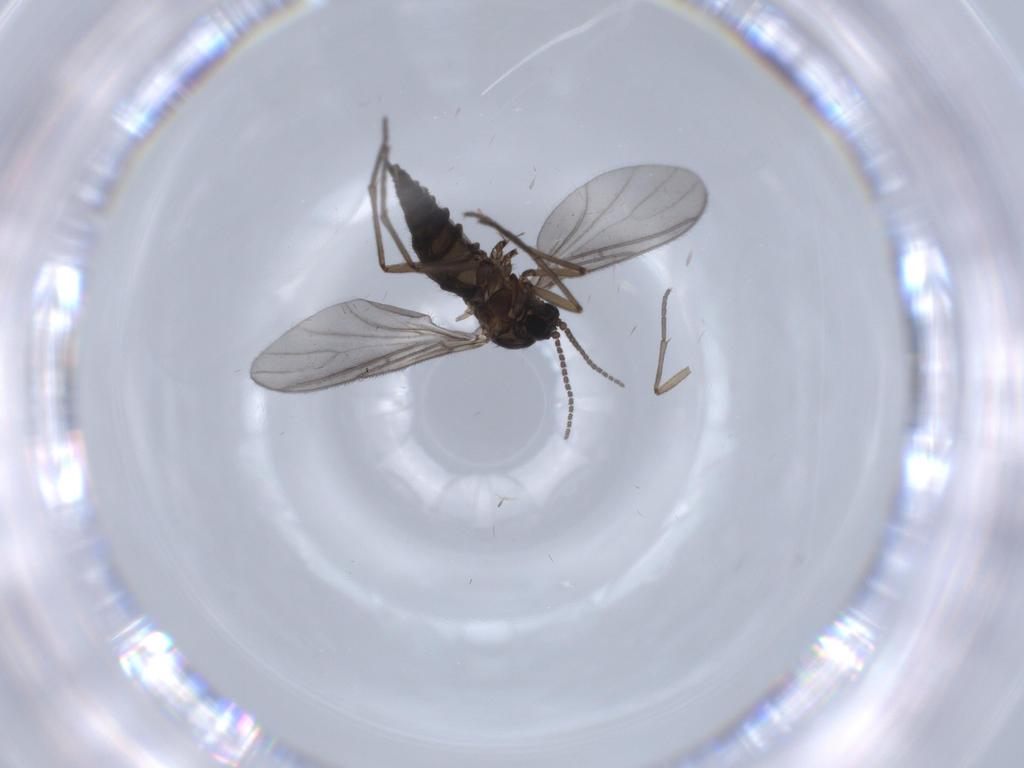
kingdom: Animalia
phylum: Arthropoda
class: Insecta
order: Diptera
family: Sciaridae
